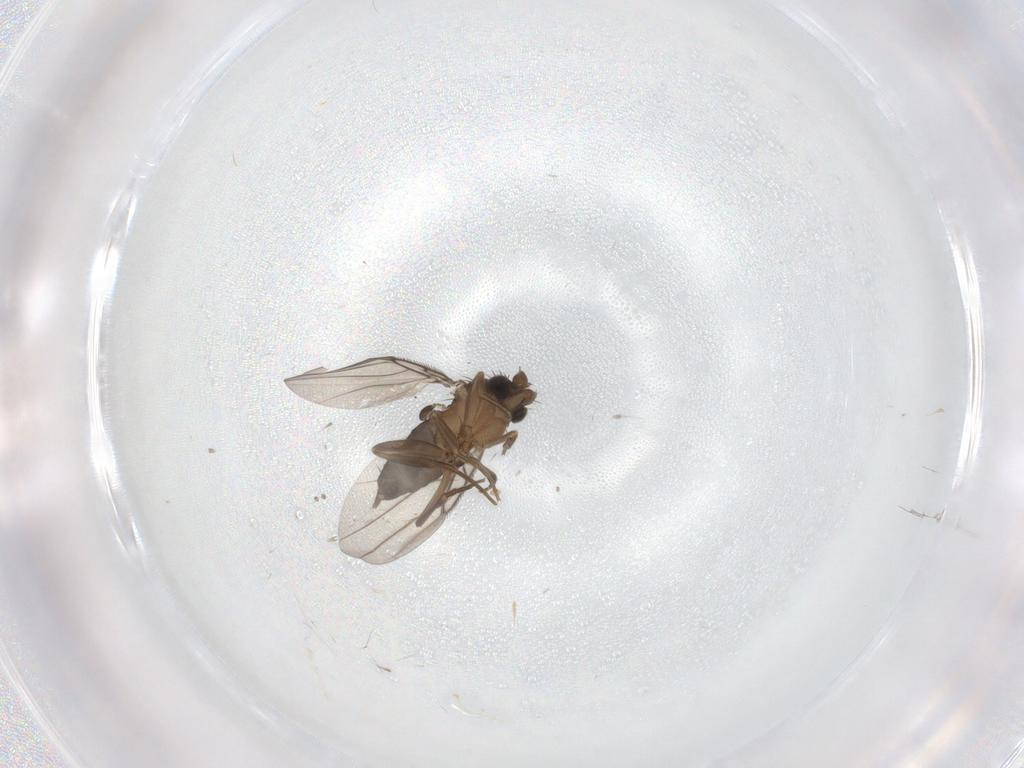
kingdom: Animalia
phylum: Arthropoda
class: Insecta
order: Diptera
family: Psychodidae
